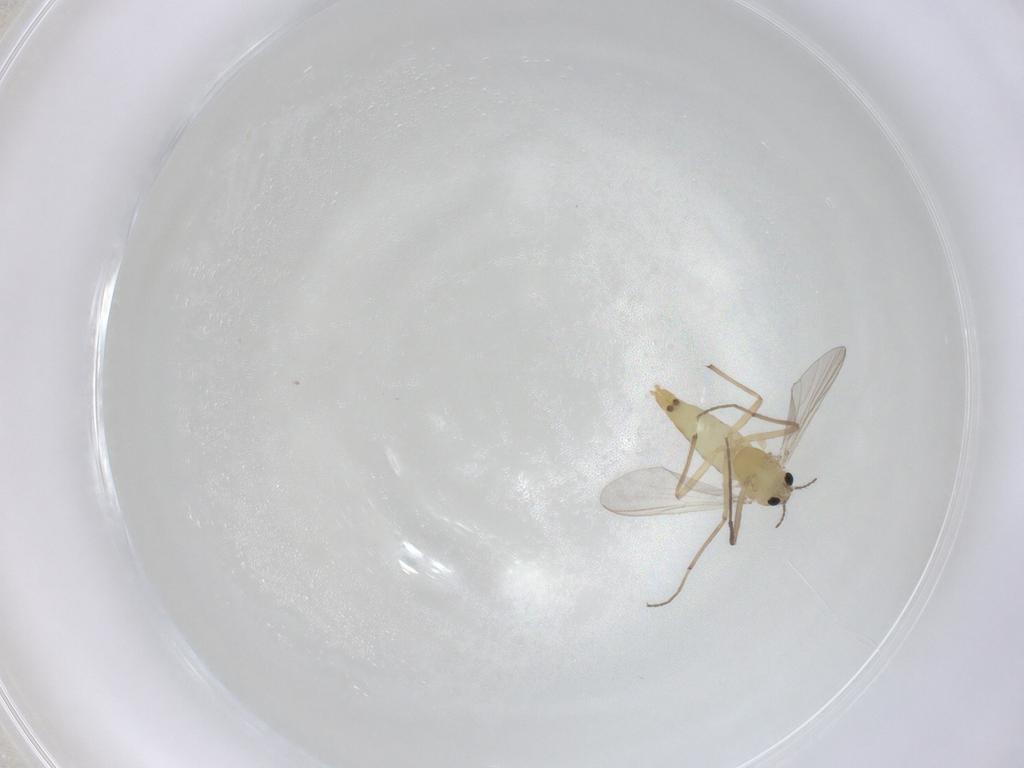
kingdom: Animalia
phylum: Arthropoda
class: Insecta
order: Diptera
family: Chironomidae
